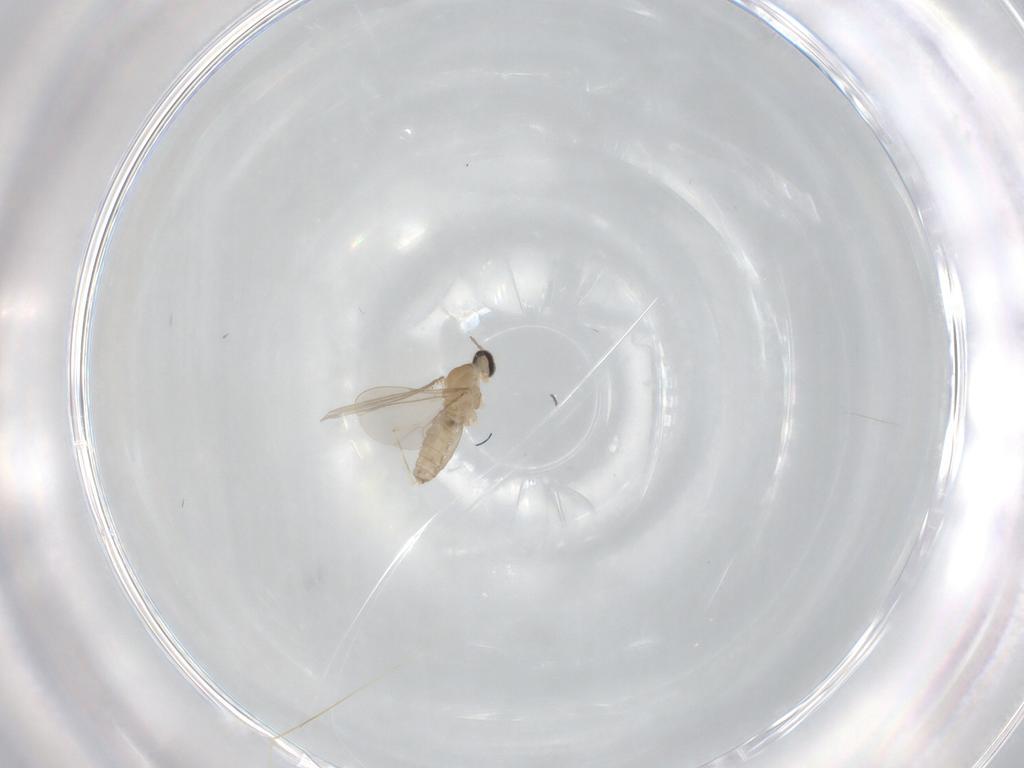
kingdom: Animalia
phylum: Arthropoda
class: Insecta
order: Diptera
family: Cecidomyiidae
